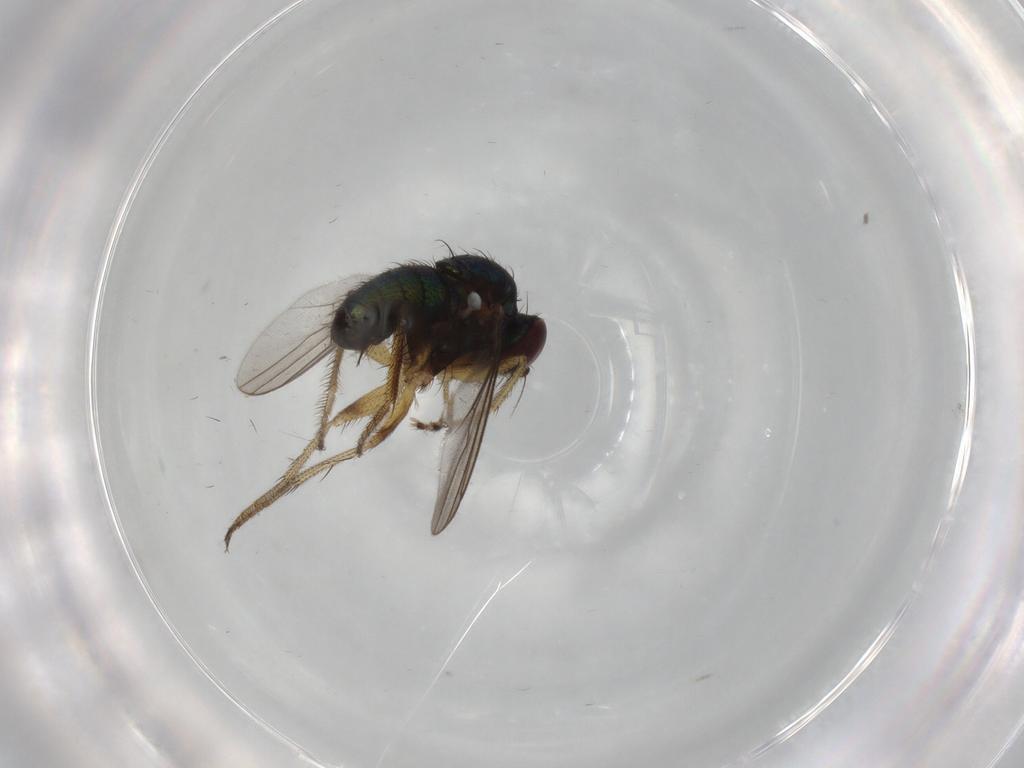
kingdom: Animalia
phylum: Arthropoda
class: Insecta
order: Diptera
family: Dolichopodidae
